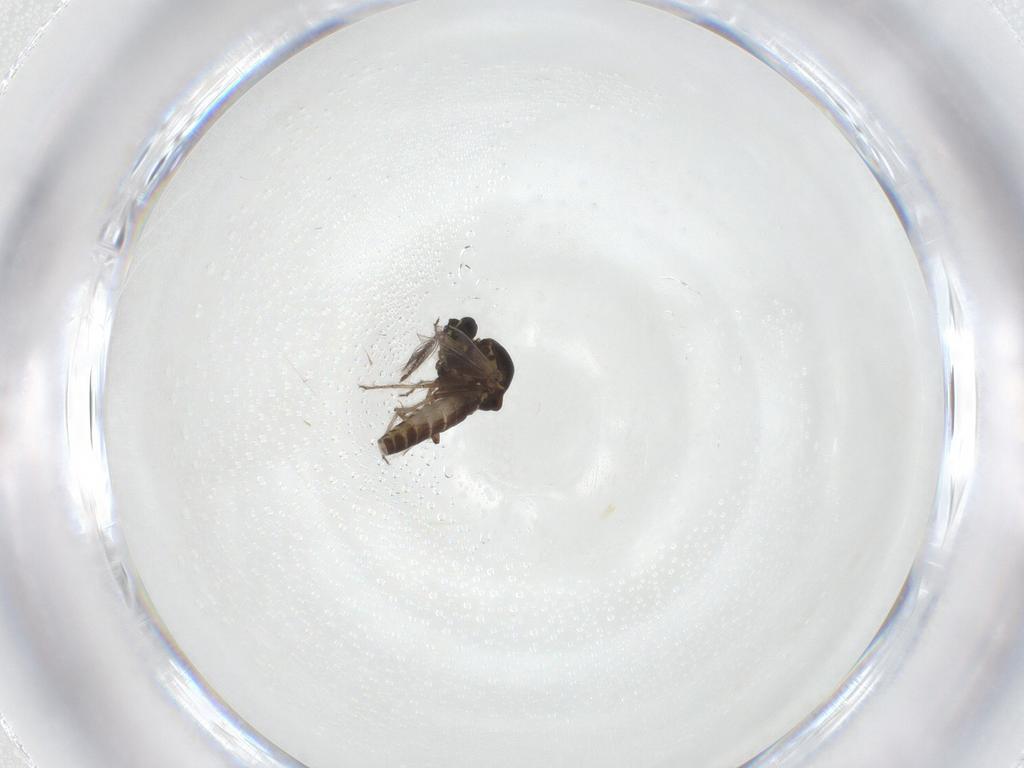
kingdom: Animalia
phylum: Arthropoda
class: Insecta
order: Diptera
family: Ceratopogonidae
